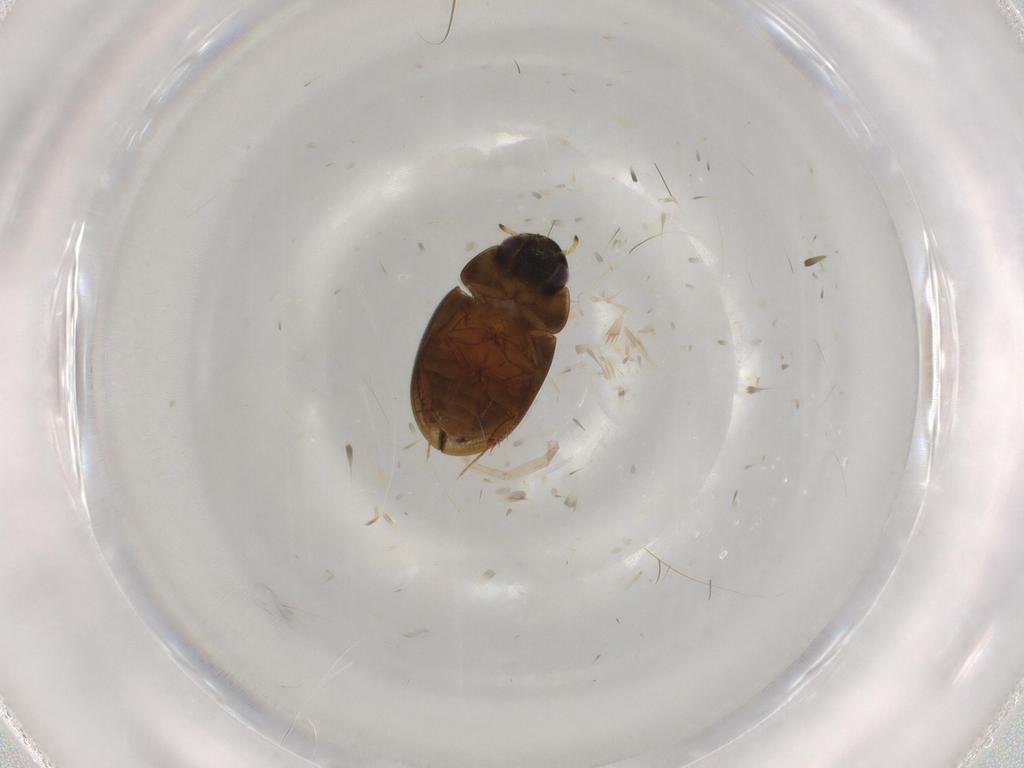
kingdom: Animalia
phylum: Arthropoda
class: Insecta
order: Coleoptera
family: Hydrophilidae
